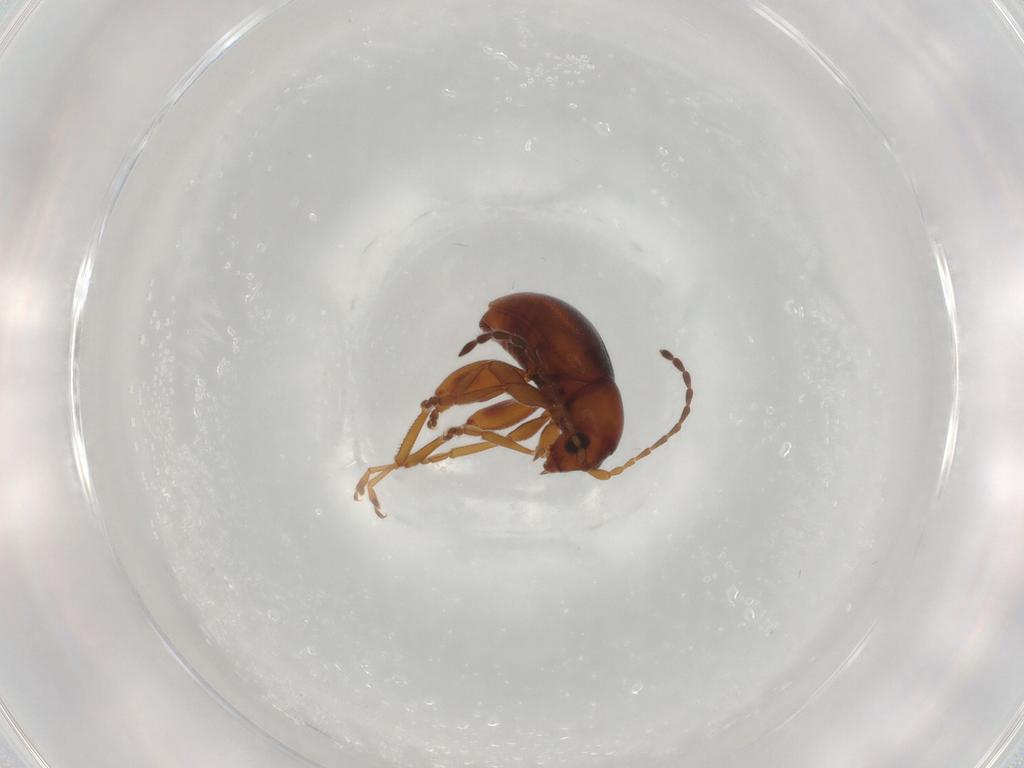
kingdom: Animalia
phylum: Arthropoda
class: Insecta
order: Coleoptera
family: Chrysomelidae
